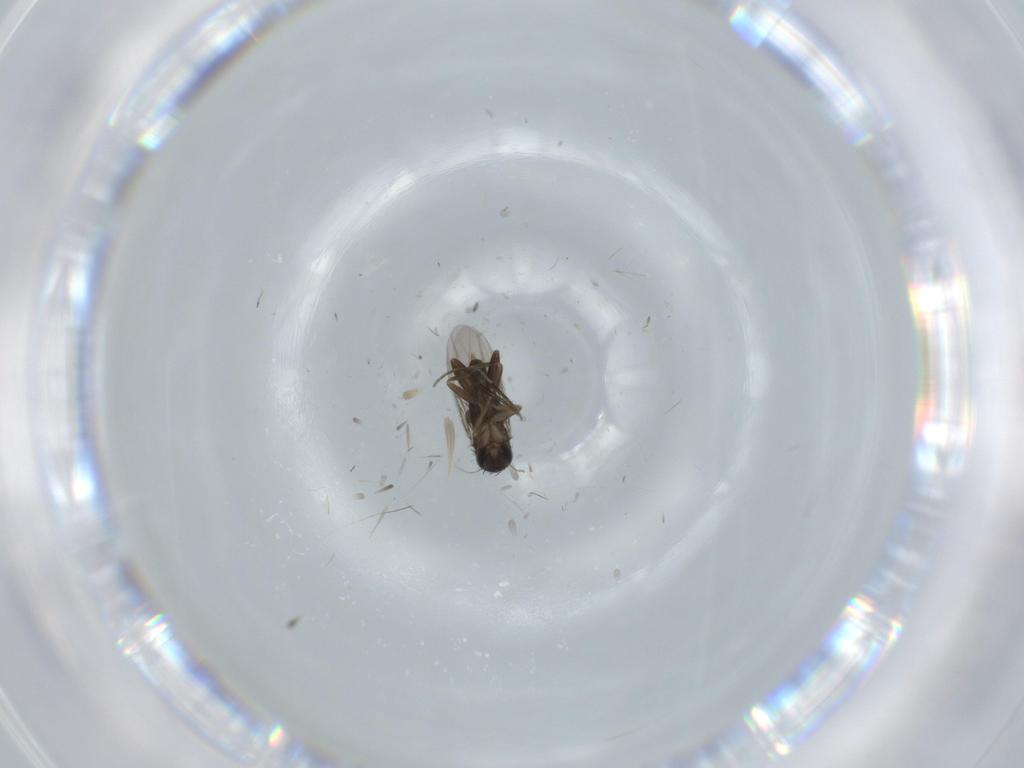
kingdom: Animalia
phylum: Arthropoda
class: Insecta
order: Diptera
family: Phoridae
